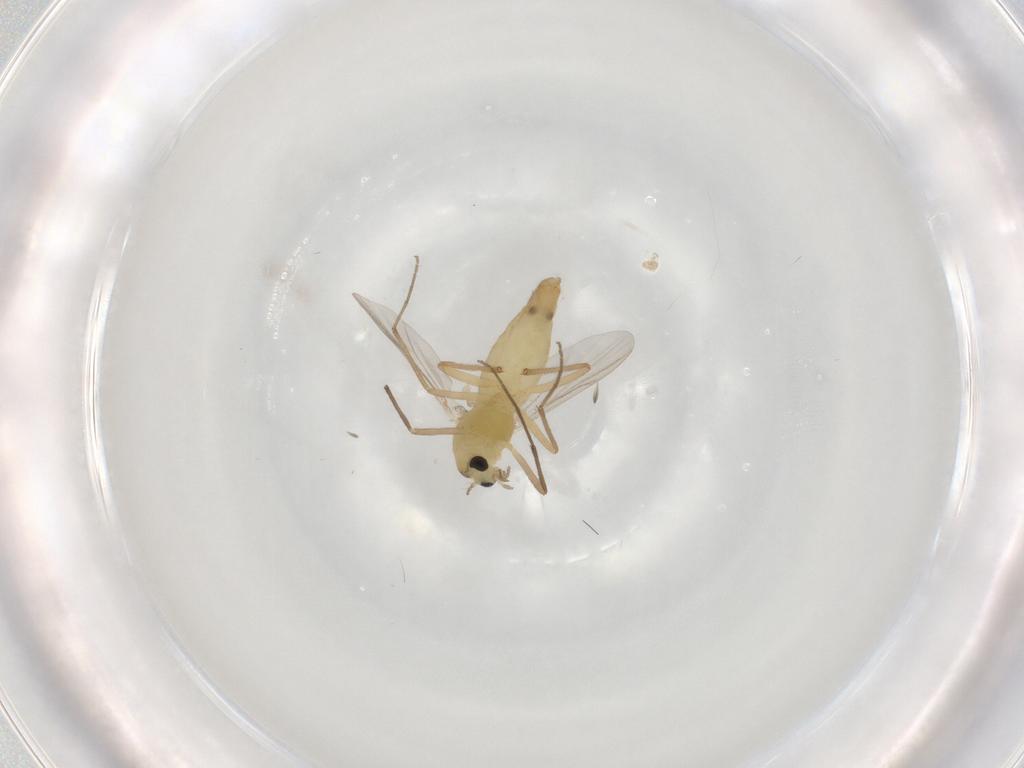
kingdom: Animalia
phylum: Arthropoda
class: Insecta
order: Diptera
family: Chironomidae
